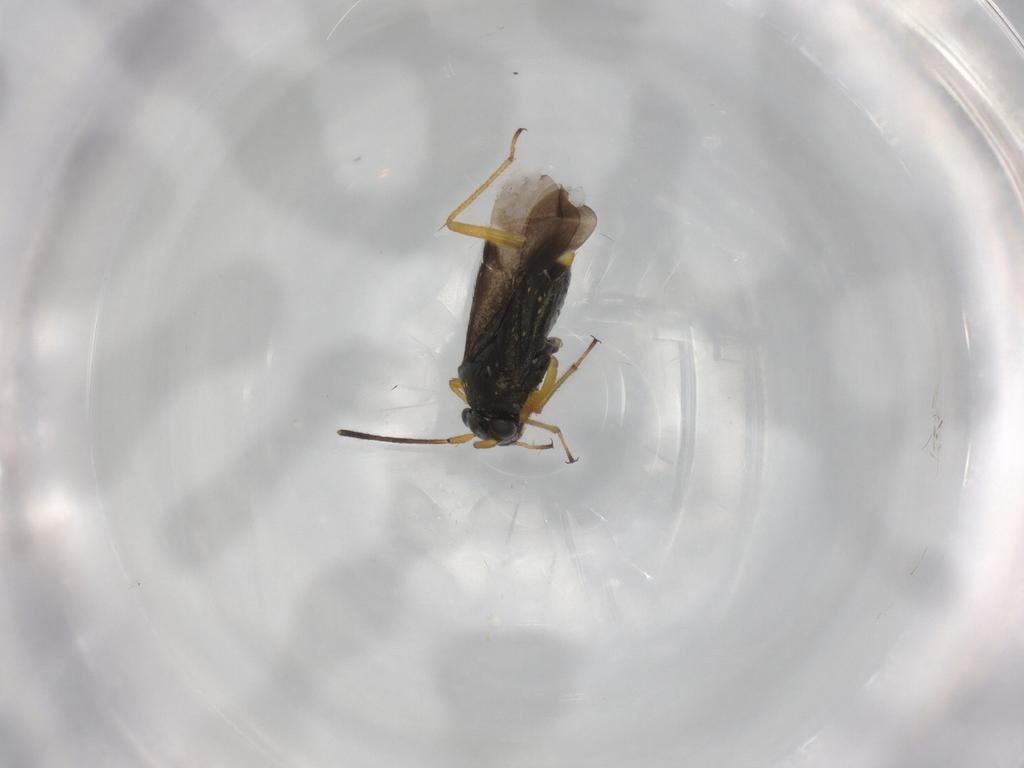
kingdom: Animalia
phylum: Arthropoda
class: Insecta
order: Hemiptera
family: Miridae
